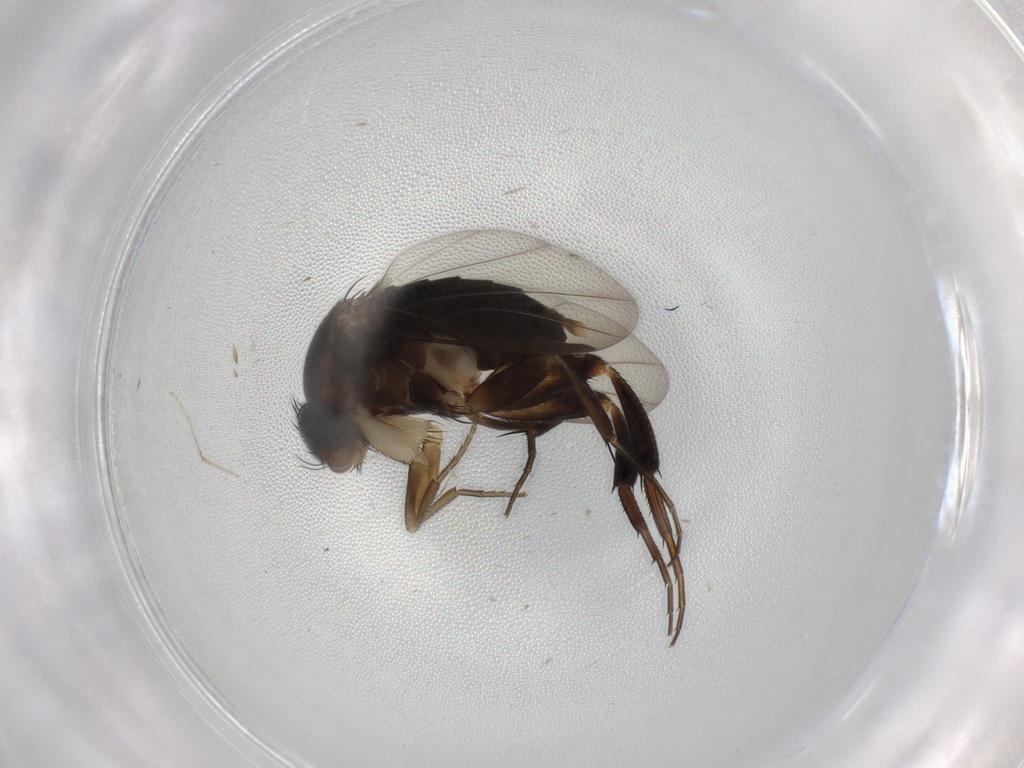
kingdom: Animalia
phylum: Arthropoda
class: Insecta
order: Diptera
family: Phoridae
